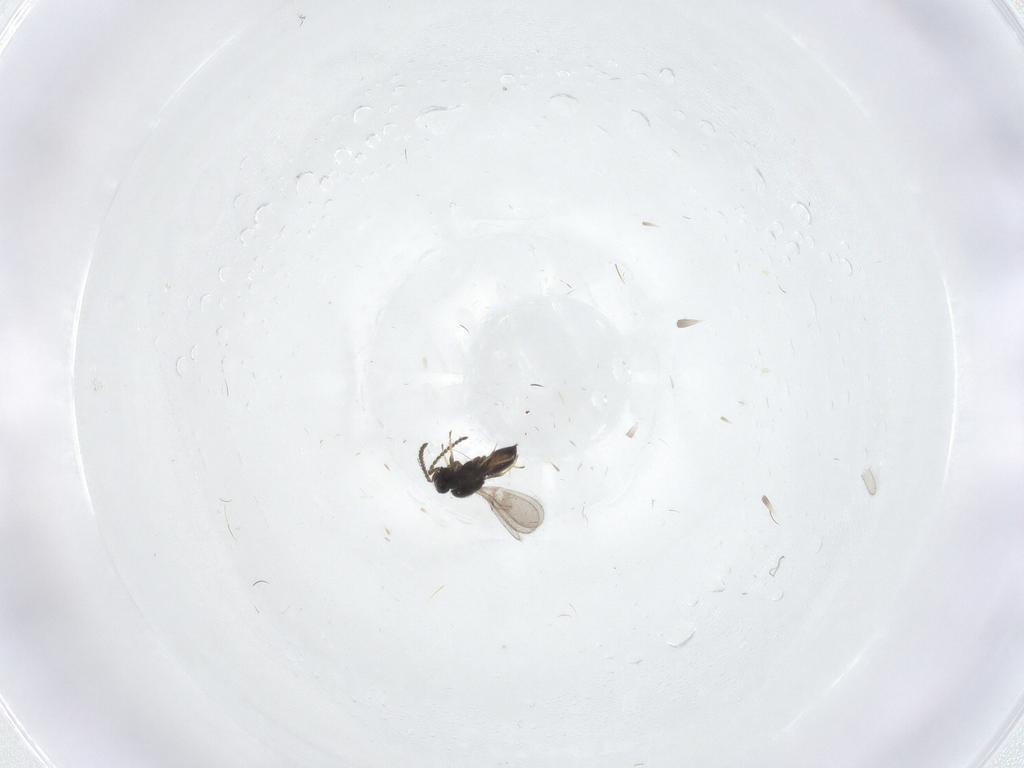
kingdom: Animalia
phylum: Arthropoda
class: Insecta
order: Hymenoptera
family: Scelionidae
